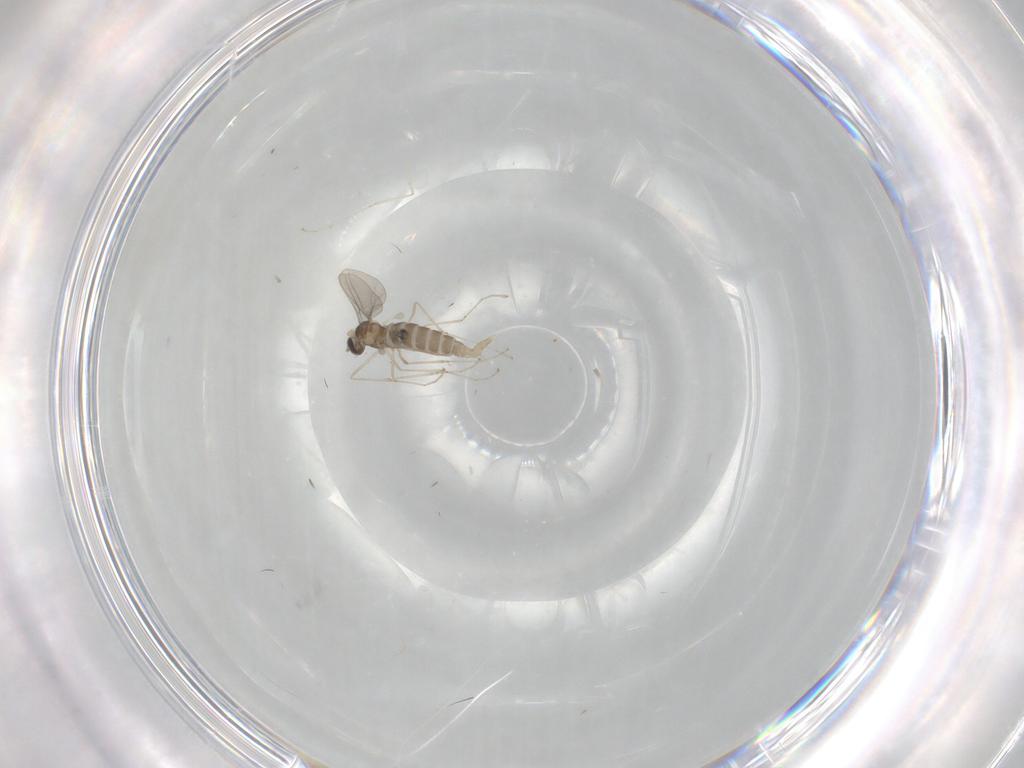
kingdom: Animalia
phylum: Arthropoda
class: Insecta
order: Diptera
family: Cecidomyiidae
